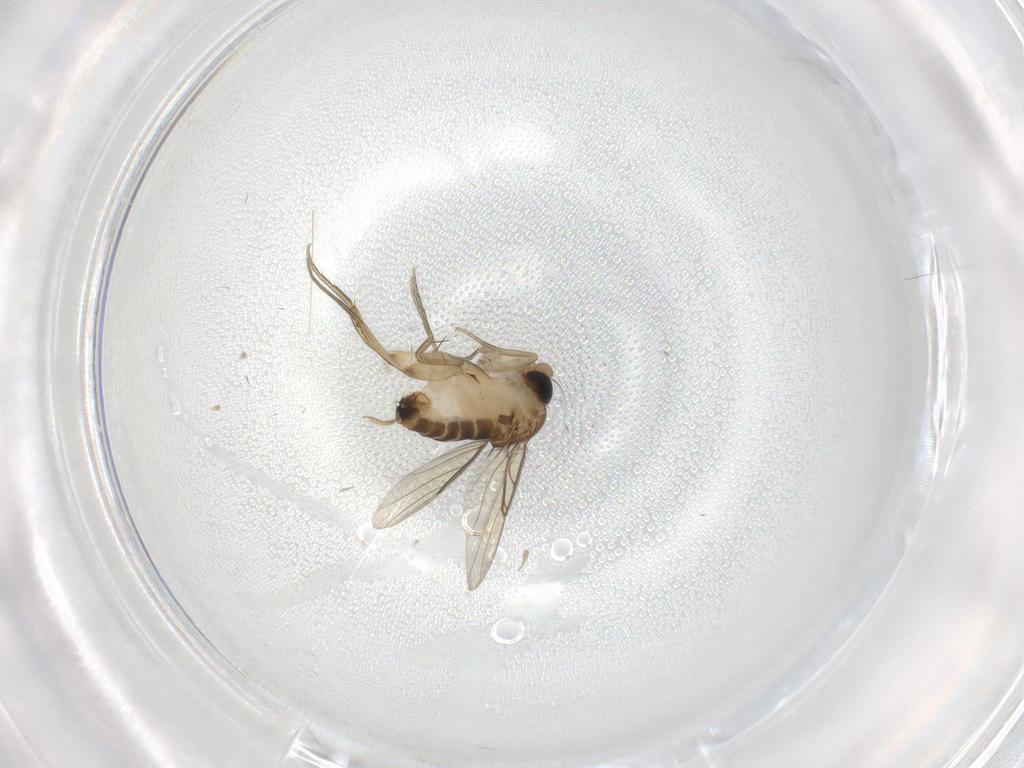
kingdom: Animalia
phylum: Arthropoda
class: Insecta
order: Diptera
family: Cecidomyiidae
